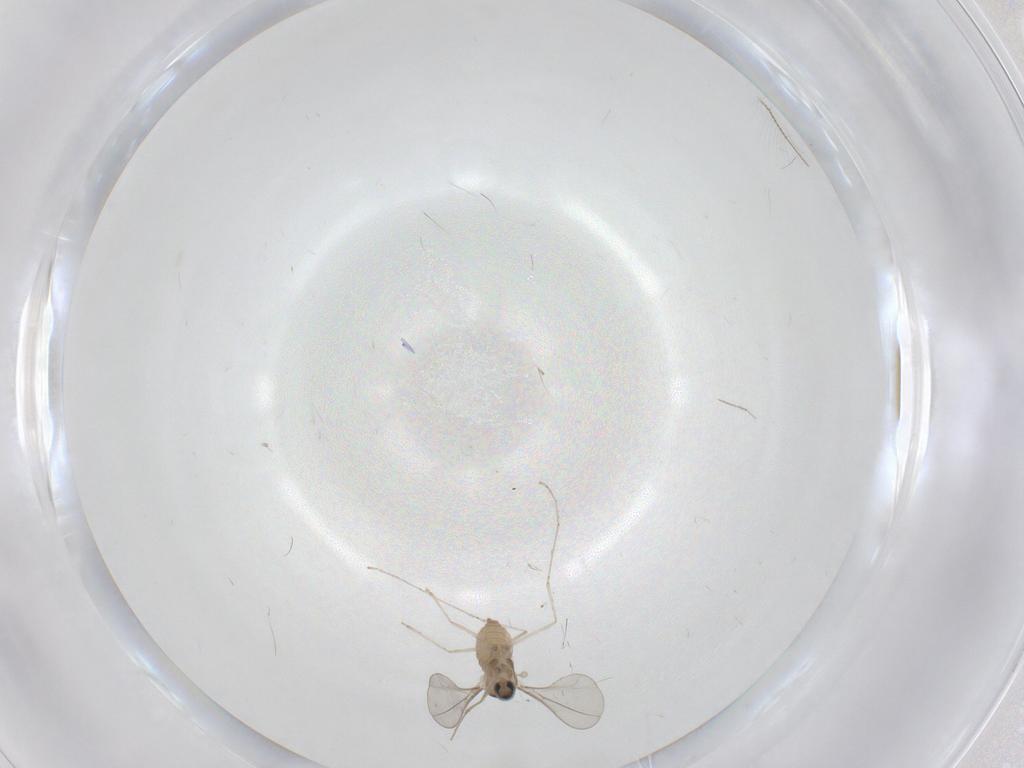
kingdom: Animalia
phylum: Arthropoda
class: Insecta
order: Diptera
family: Cecidomyiidae
